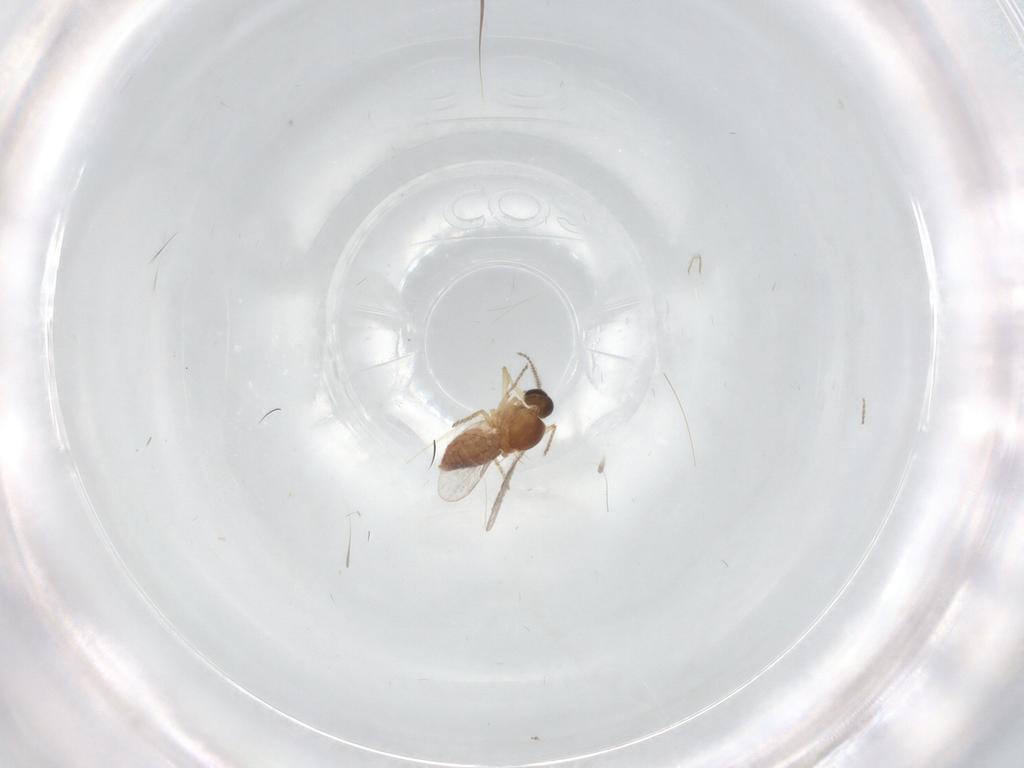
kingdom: Animalia
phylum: Arthropoda
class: Insecta
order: Diptera
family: Ceratopogonidae
